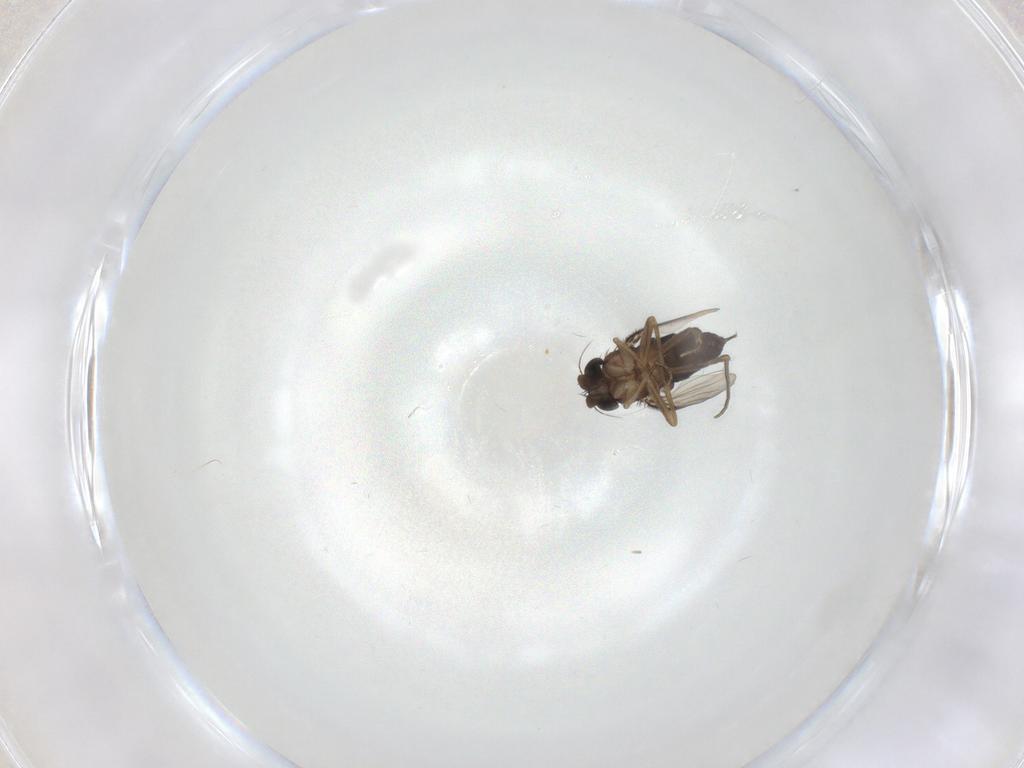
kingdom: Animalia
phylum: Arthropoda
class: Insecta
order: Diptera
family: Phoridae
